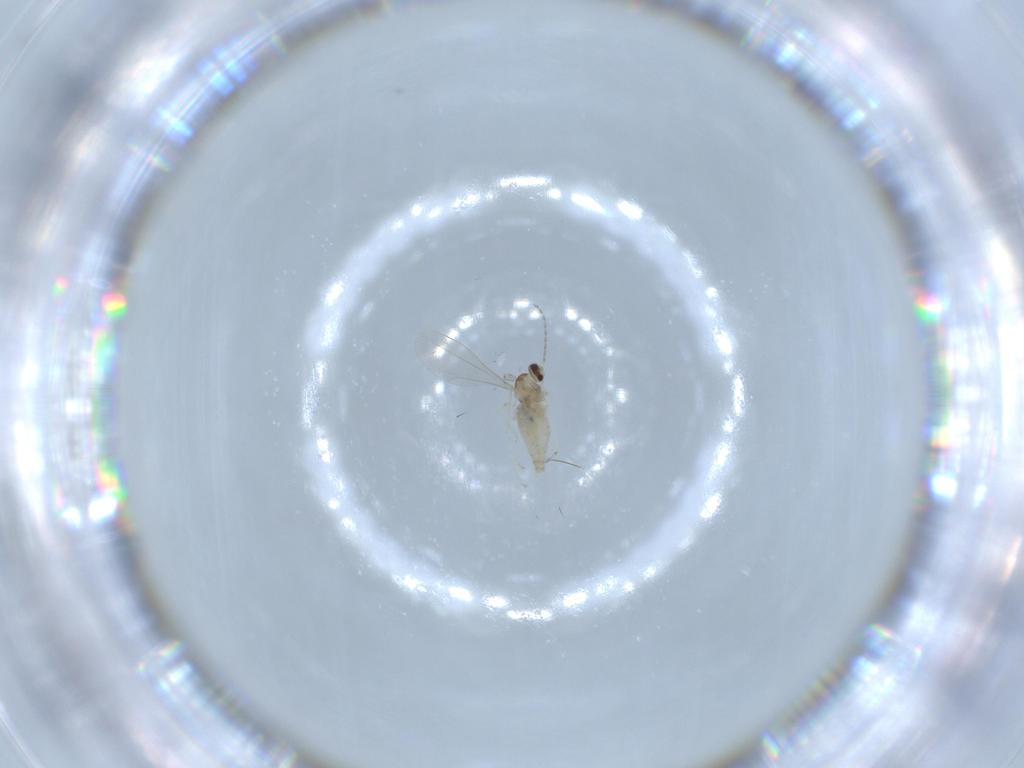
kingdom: Animalia
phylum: Arthropoda
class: Insecta
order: Diptera
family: Cecidomyiidae
